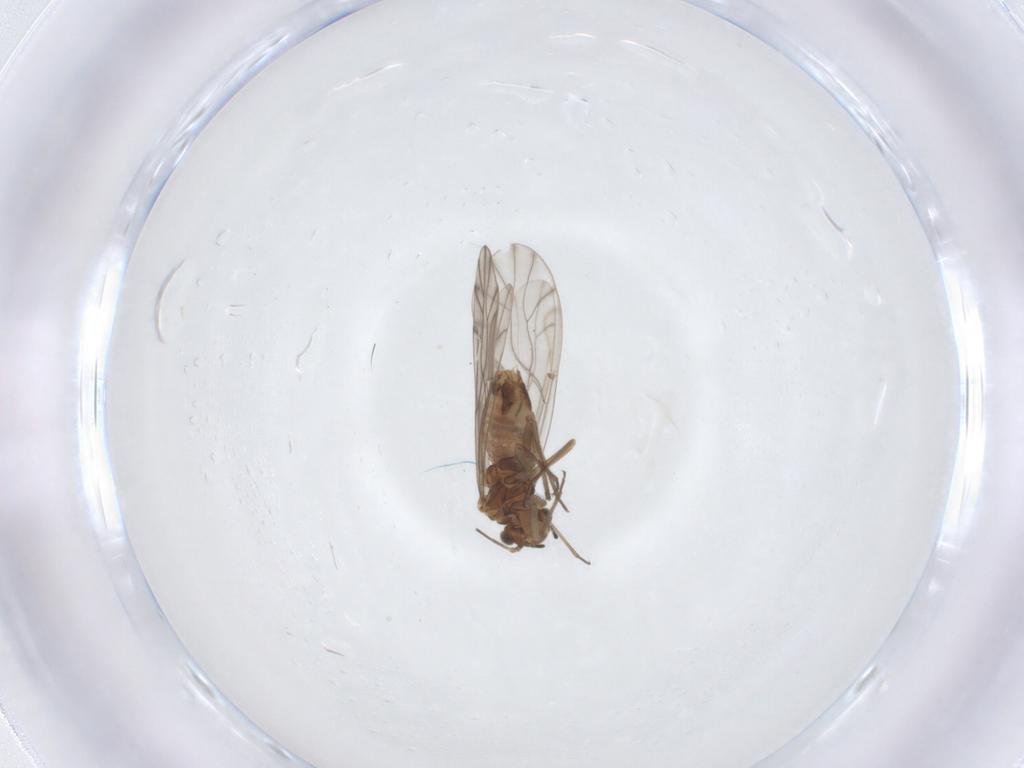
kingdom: Animalia
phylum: Arthropoda
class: Insecta
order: Psocodea
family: Lachesillidae
